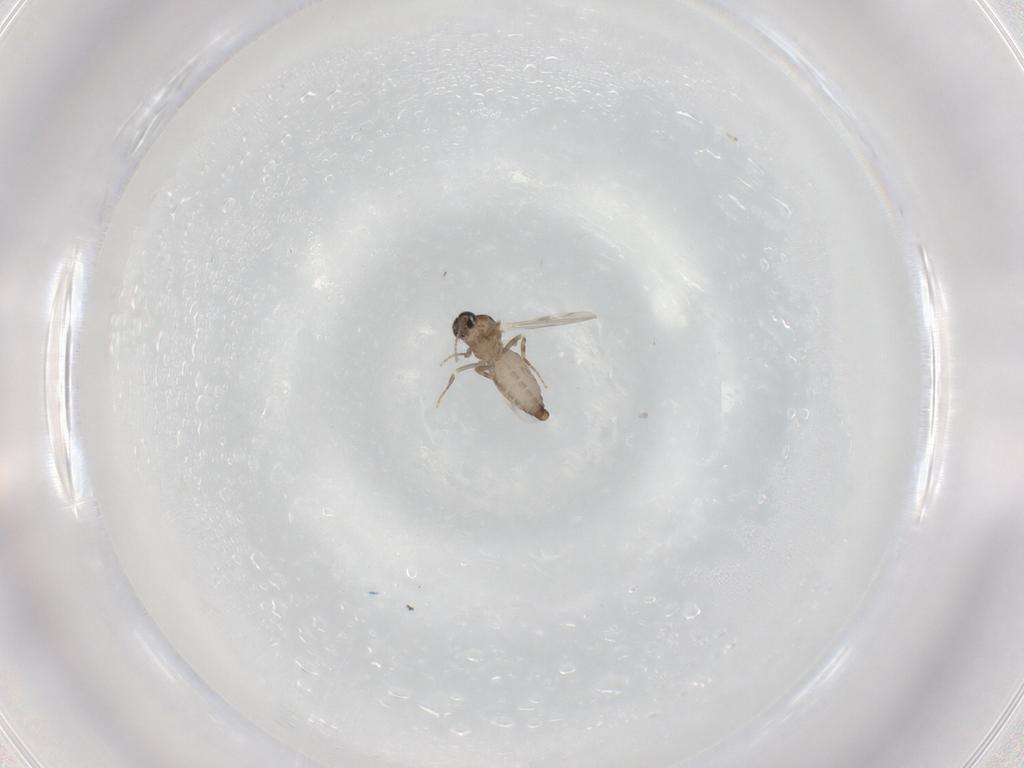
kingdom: Animalia
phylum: Arthropoda
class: Insecta
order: Diptera
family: Ceratopogonidae
